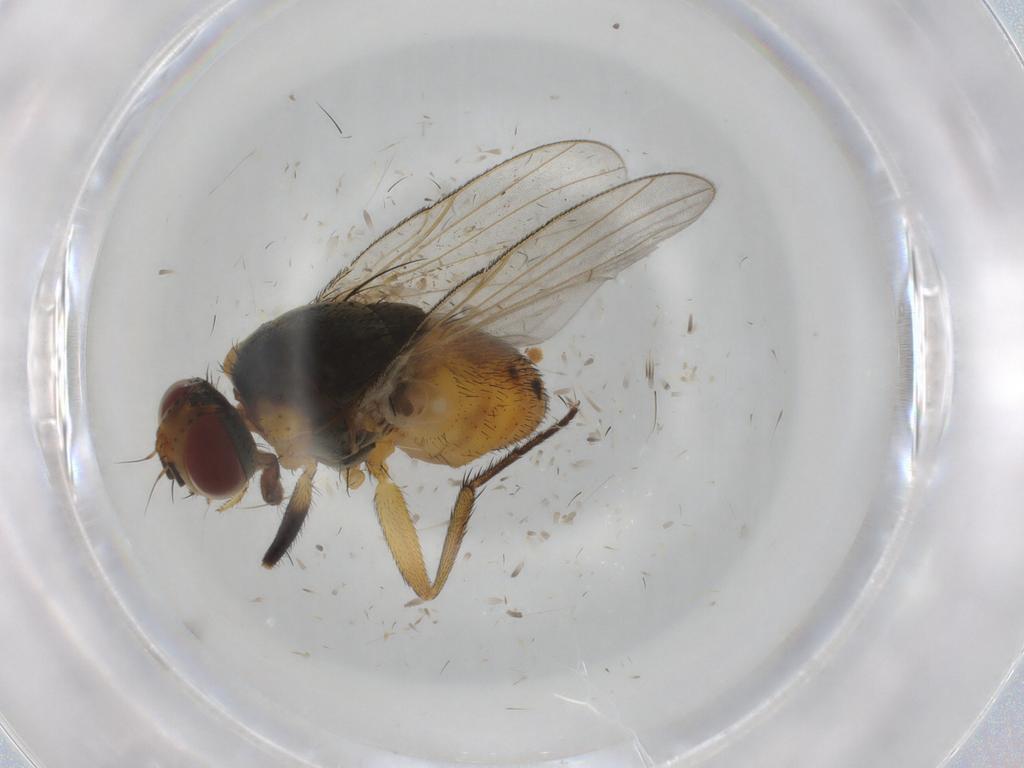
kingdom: Animalia
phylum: Arthropoda
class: Insecta
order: Diptera
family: Muscidae
